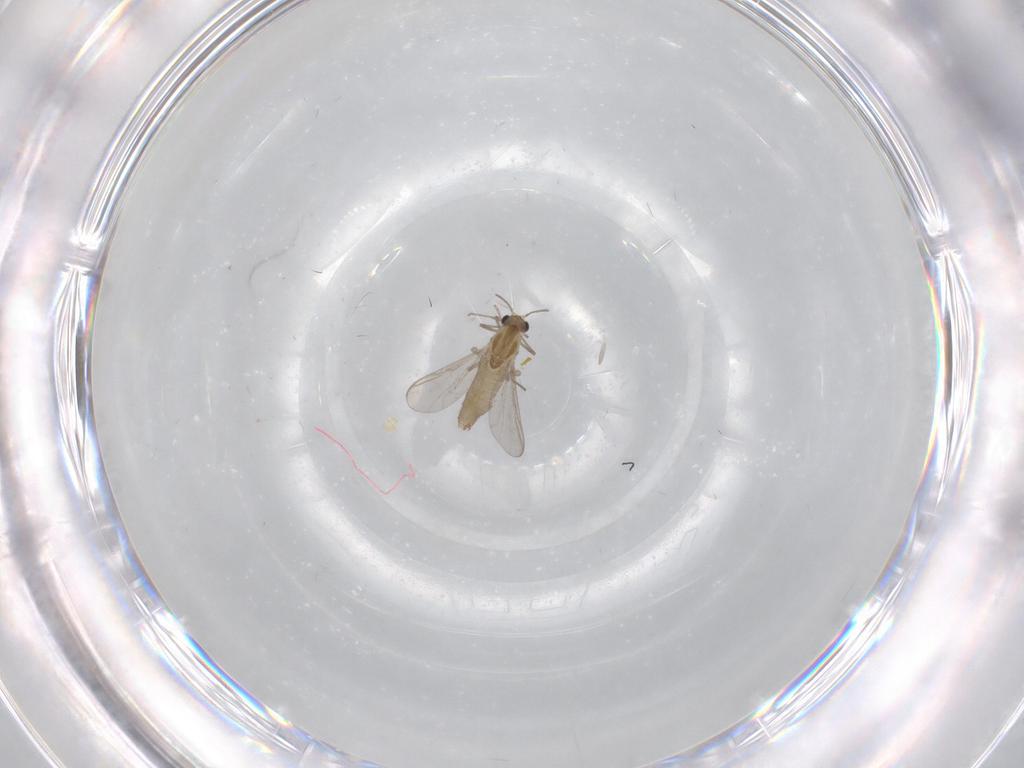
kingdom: Animalia
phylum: Arthropoda
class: Insecta
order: Diptera
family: Chironomidae
